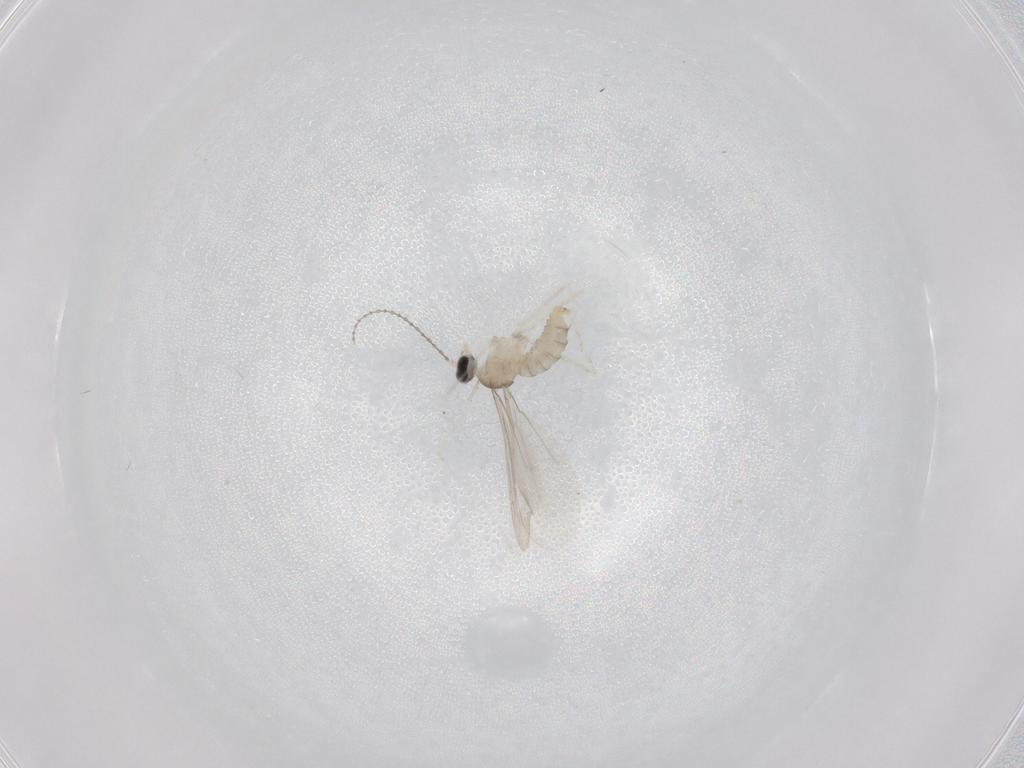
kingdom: Animalia
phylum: Arthropoda
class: Insecta
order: Diptera
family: Cecidomyiidae
